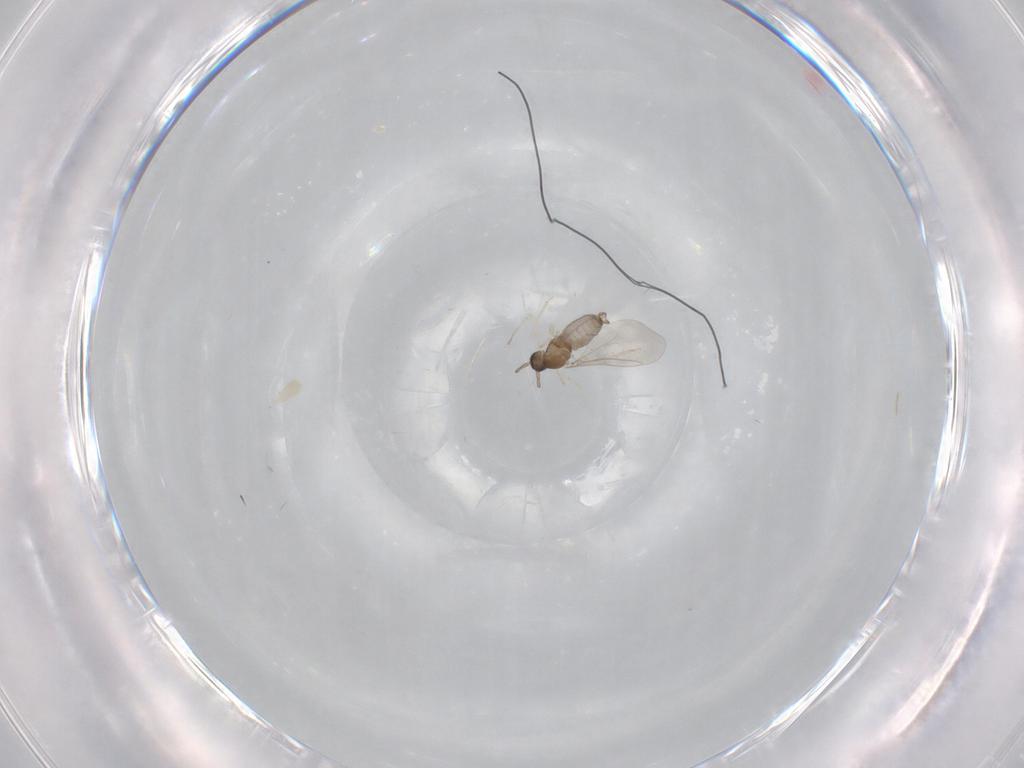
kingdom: Animalia
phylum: Arthropoda
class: Insecta
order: Diptera
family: Cecidomyiidae
